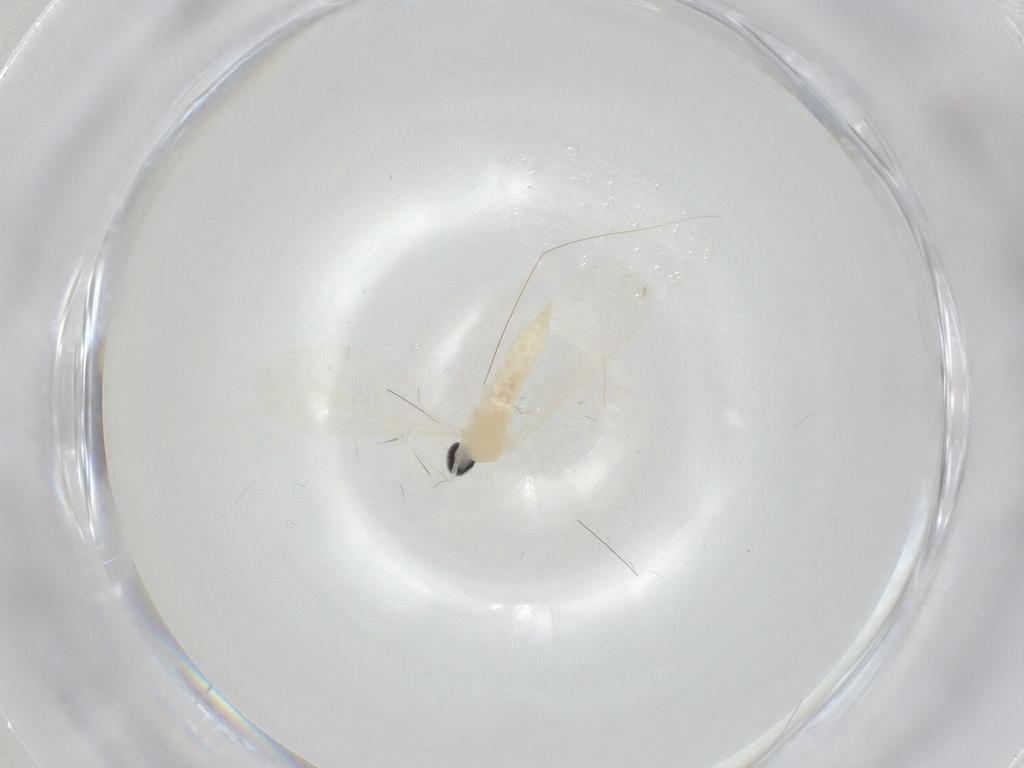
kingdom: Animalia
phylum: Arthropoda
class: Insecta
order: Diptera
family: Cecidomyiidae
